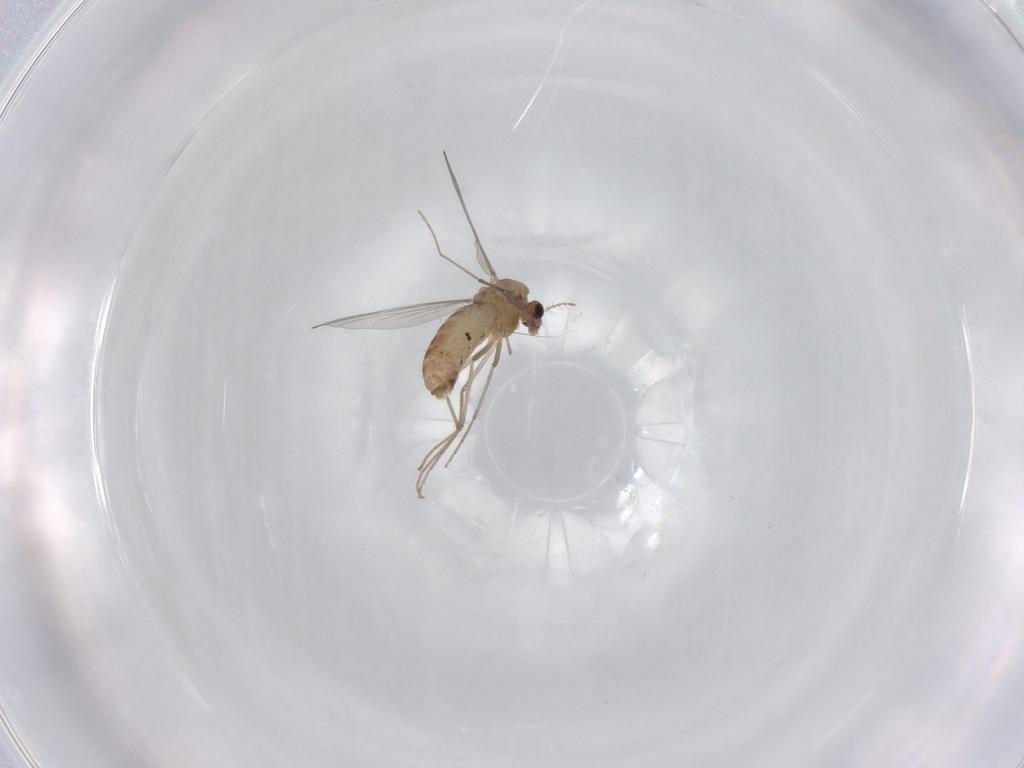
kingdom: Animalia
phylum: Arthropoda
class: Insecta
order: Diptera
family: Chironomidae
